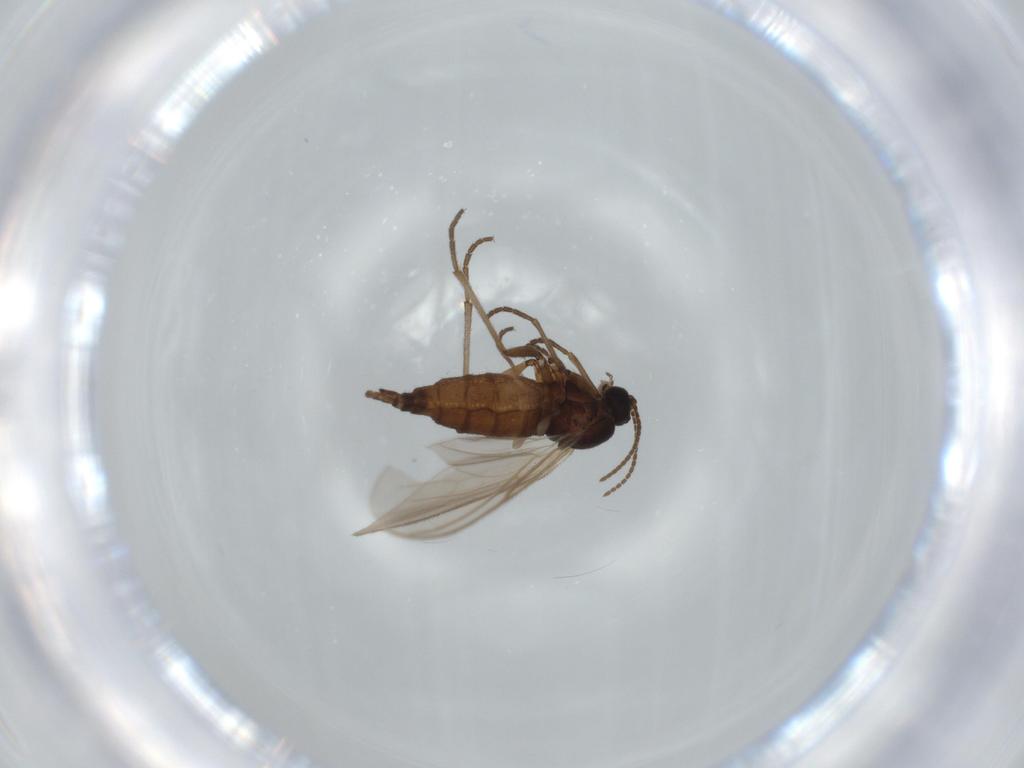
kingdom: Animalia
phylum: Arthropoda
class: Insecta
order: Diptera
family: Sciaridae
